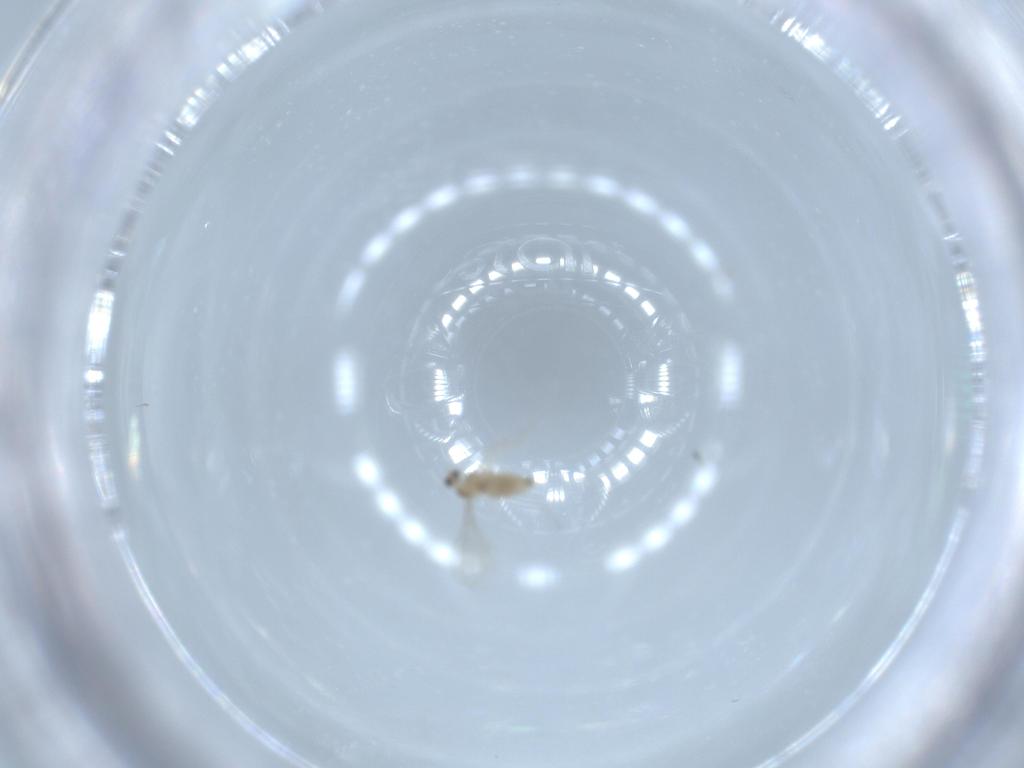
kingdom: Animalia
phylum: Arthropoda
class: Insecta
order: Diptera
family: Cecidomyiidae
